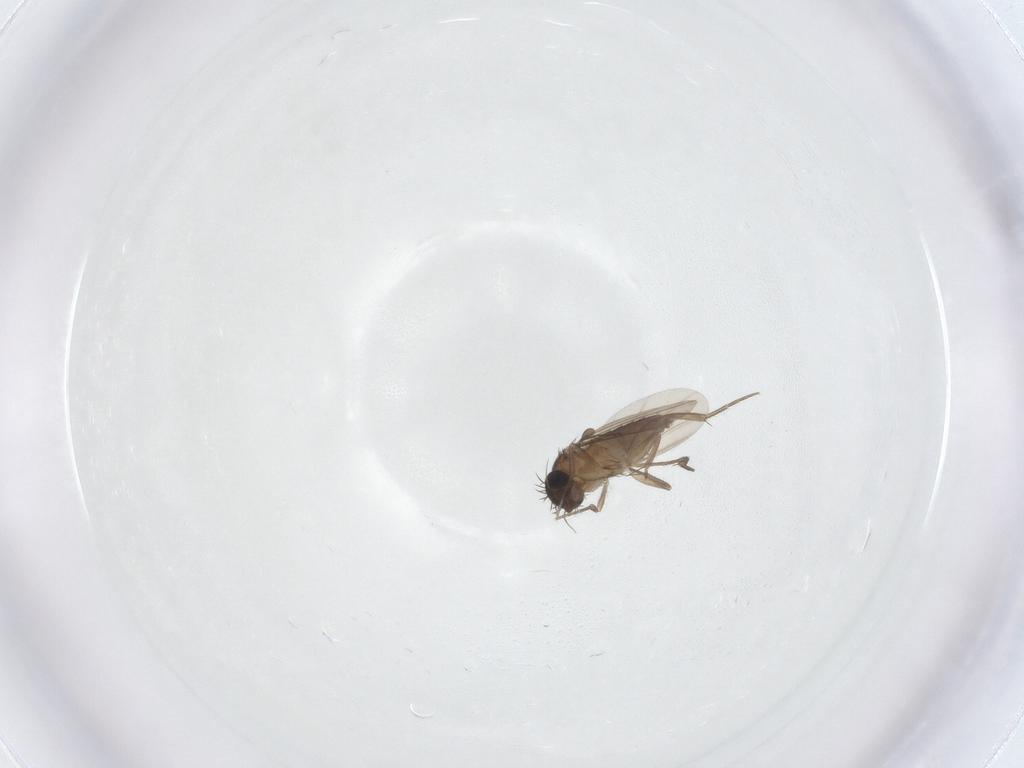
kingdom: Animalia
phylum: Arthropoda
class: Insecta
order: Diptera
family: Phoridae
